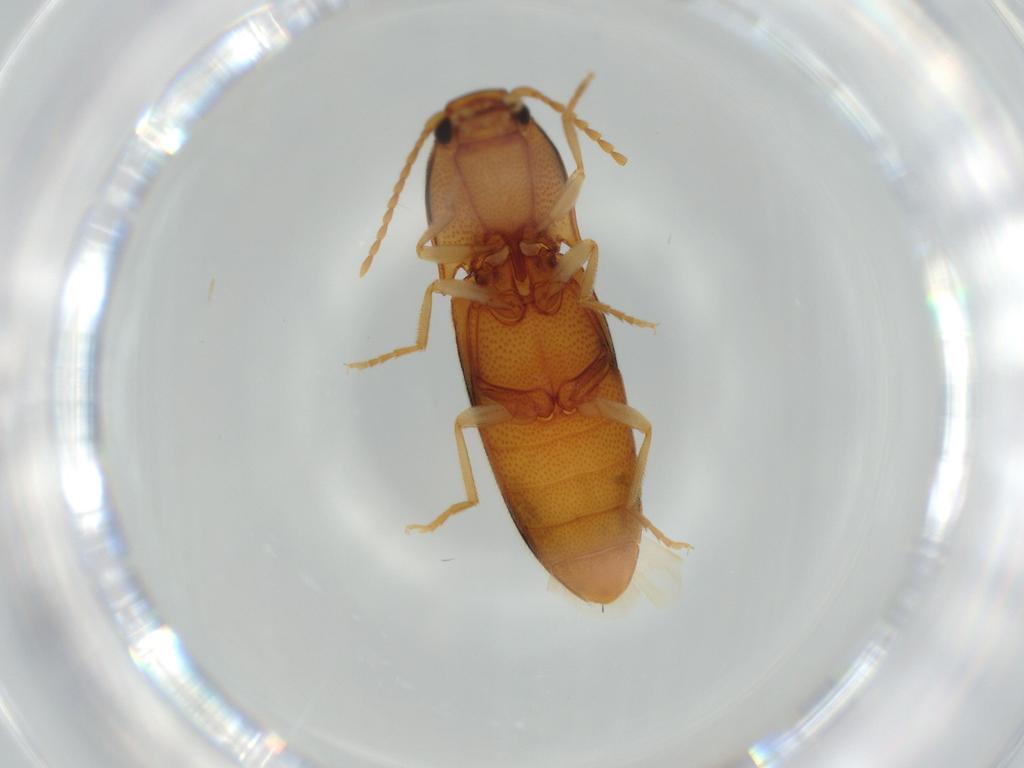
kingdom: Animalia
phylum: Arthropoda
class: Insecta
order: Coleoptera
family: Elateridae
